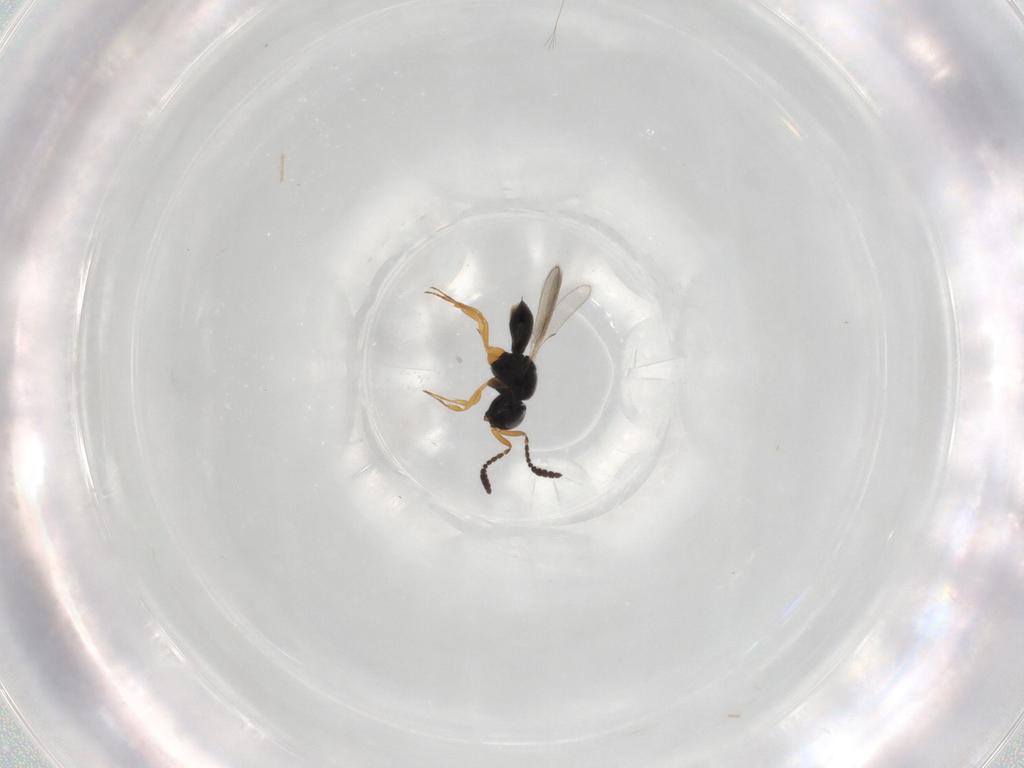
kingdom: Animalia
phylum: Arthropoda
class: Insecta
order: Hymenoptera
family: Scelionidae
